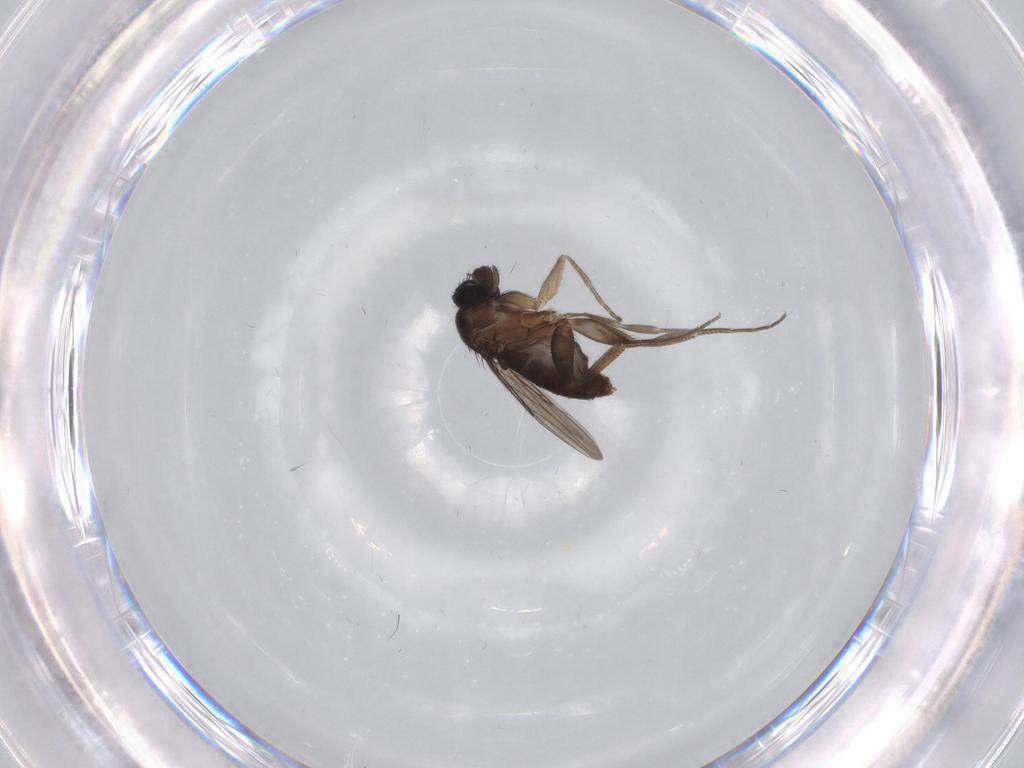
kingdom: Animalia
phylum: Arthropoda
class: Insecta
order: Diptera
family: Phoridae
